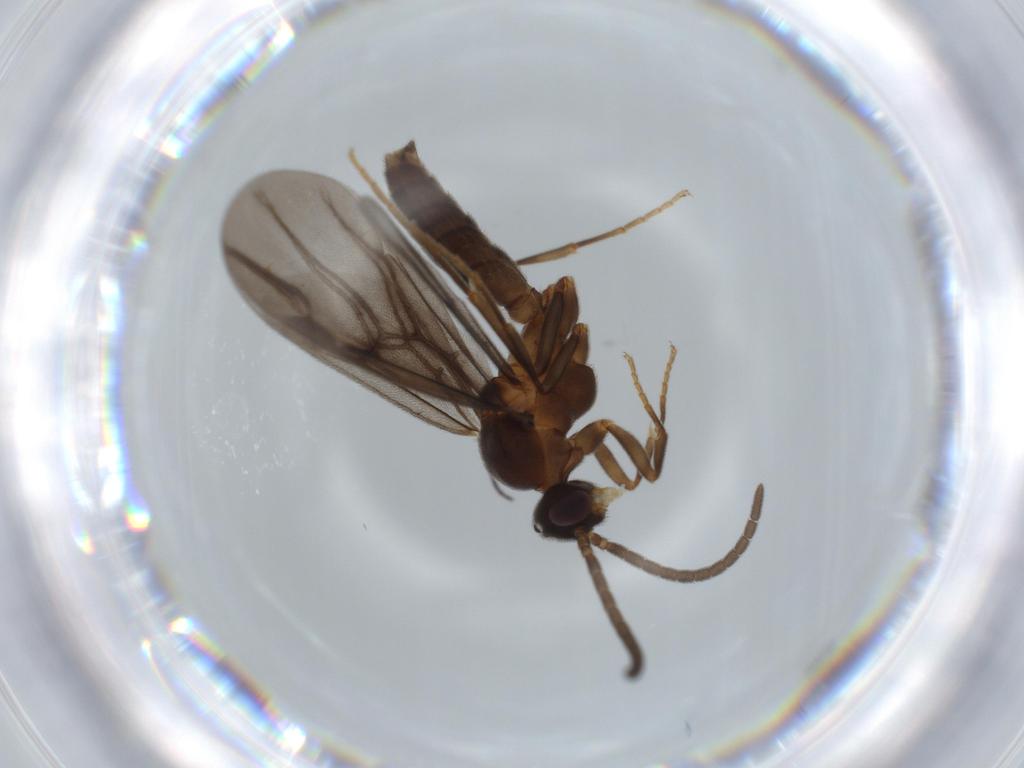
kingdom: Animalia
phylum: Arthropoda
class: Insecta
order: Hymenoptera
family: Formicidae
